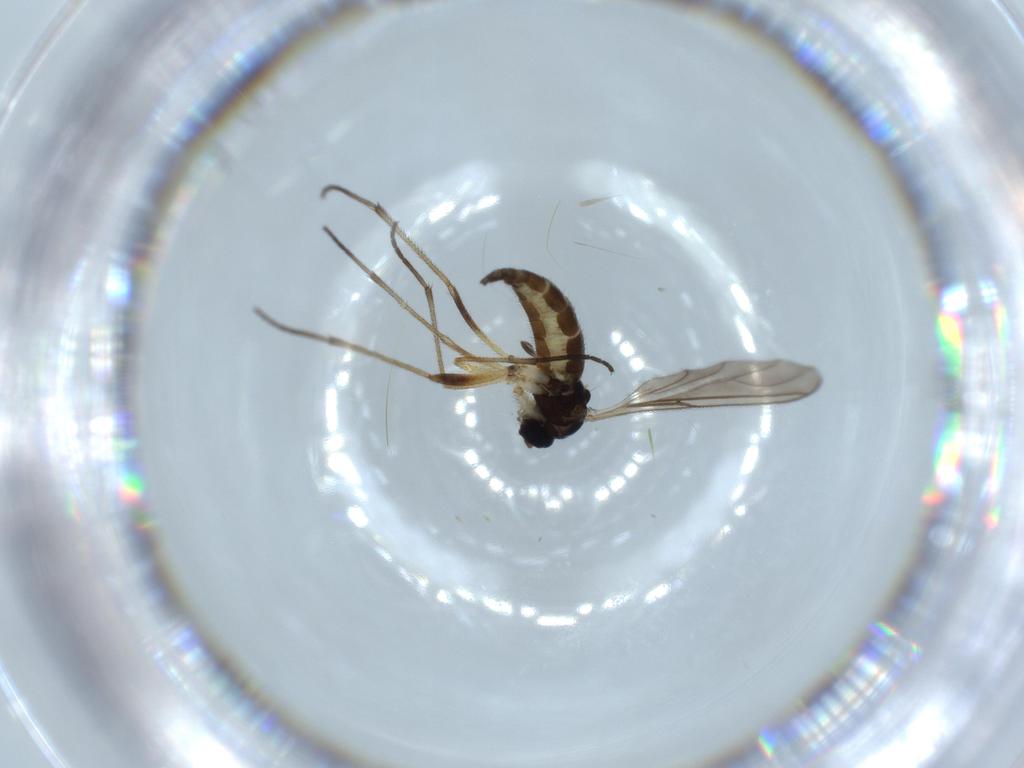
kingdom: Animalia
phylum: Arthropoda
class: Insecta
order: Diptera
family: Sciaridae
